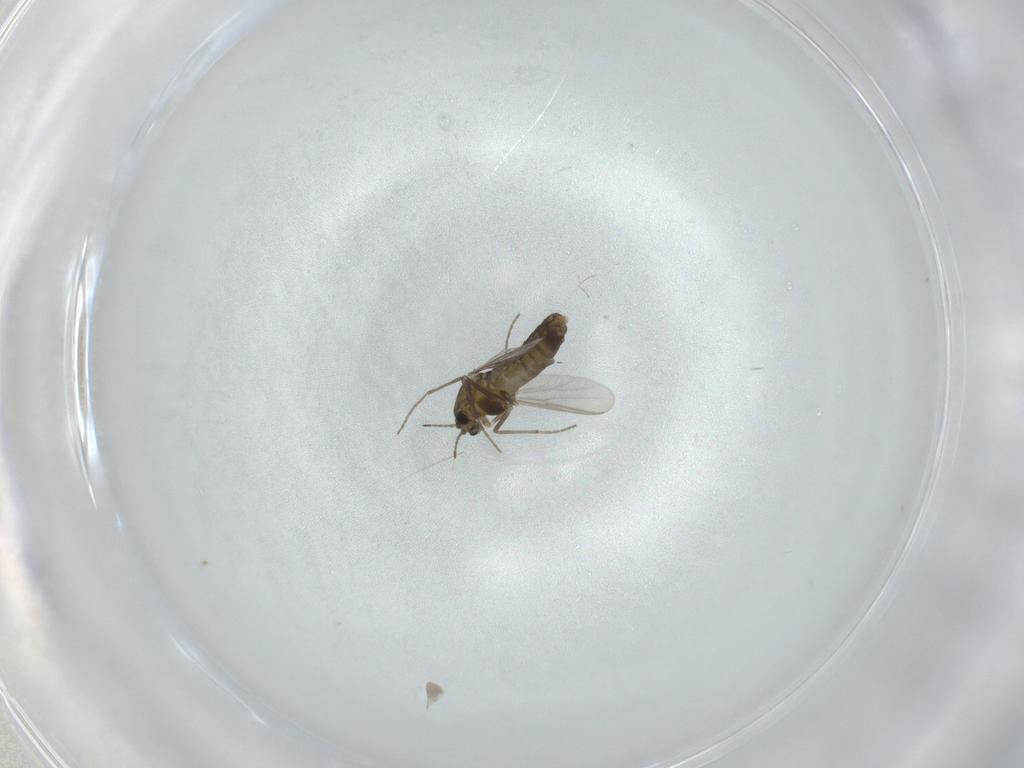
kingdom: Animalia
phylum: Arthropoda
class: Insecta
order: Diptera
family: Chironomidae
